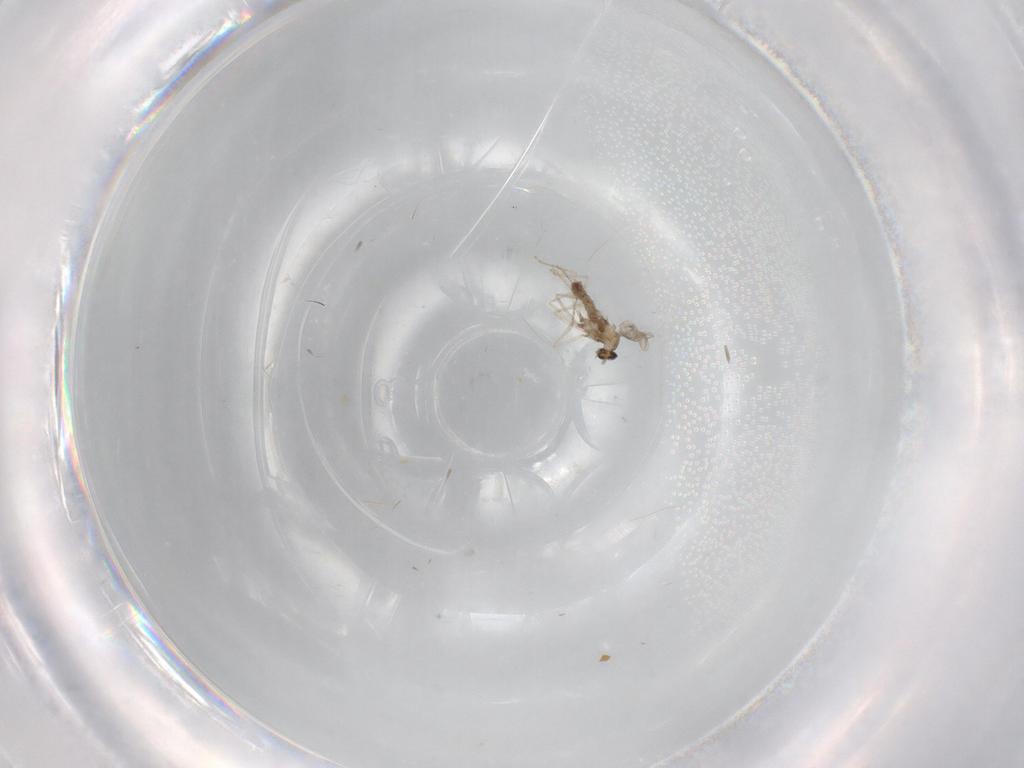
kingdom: Animalia
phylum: Arthropoda
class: Insecta
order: Diptera
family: Cecidomyiidae
